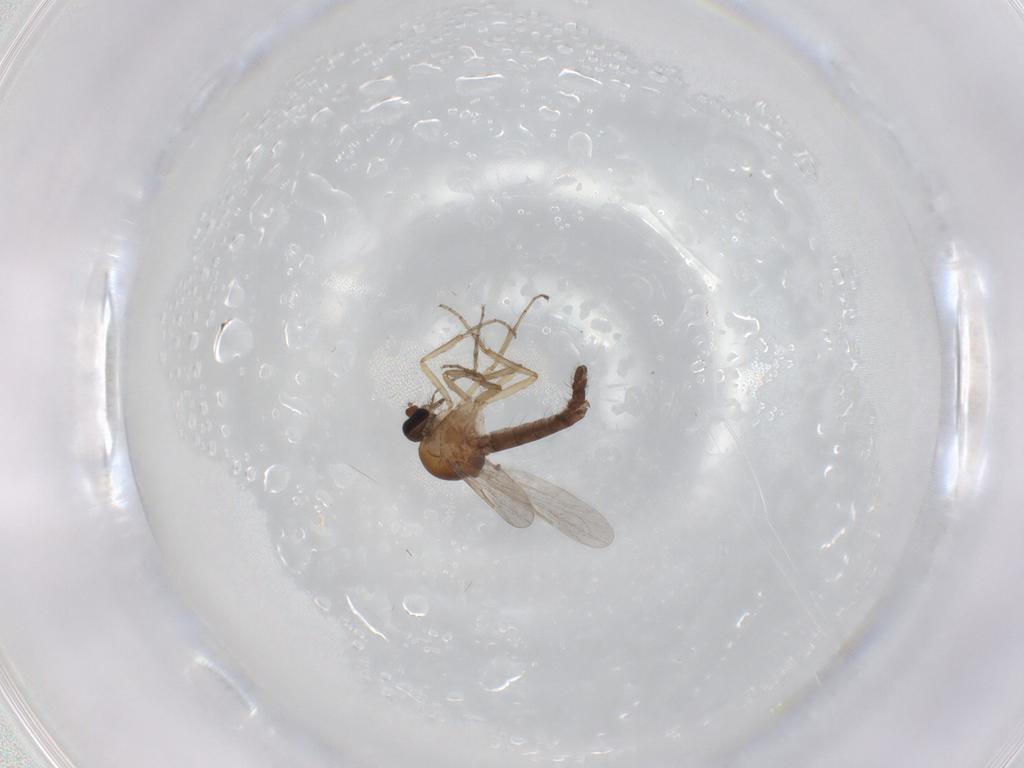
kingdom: Animalia
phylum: Arthropoda
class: Insecta
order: Diptera
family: Ceratopogonidae
